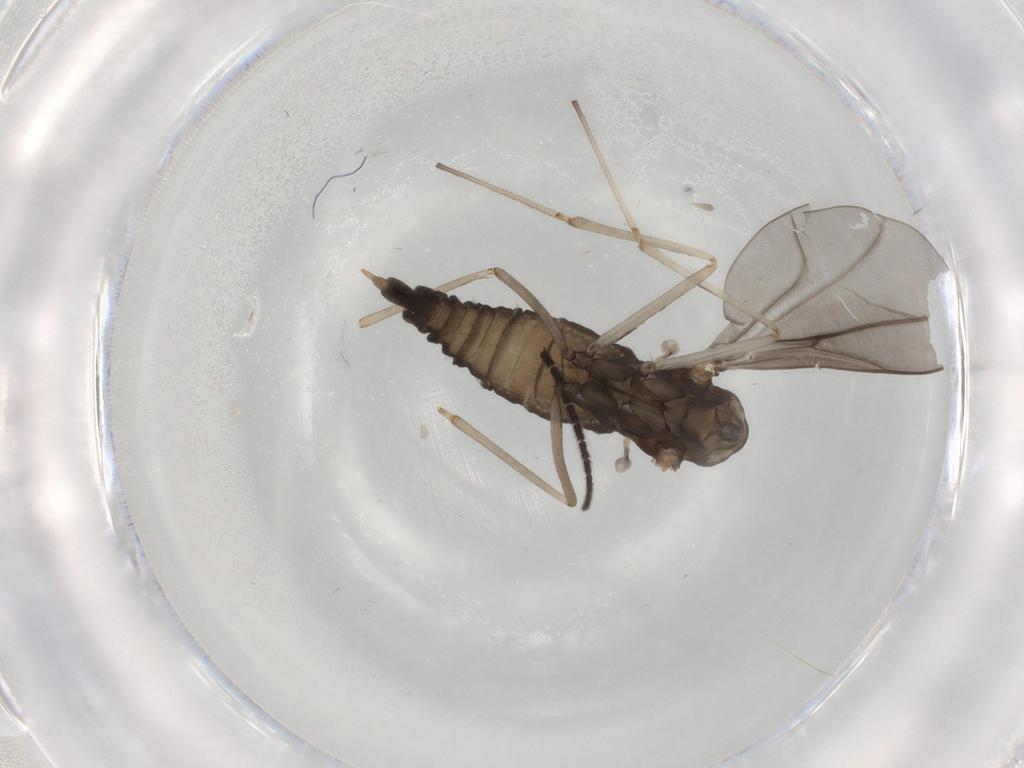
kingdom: Animalia
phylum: Arthropoda
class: Insecta
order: Diptera
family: Cecidomyiidae
